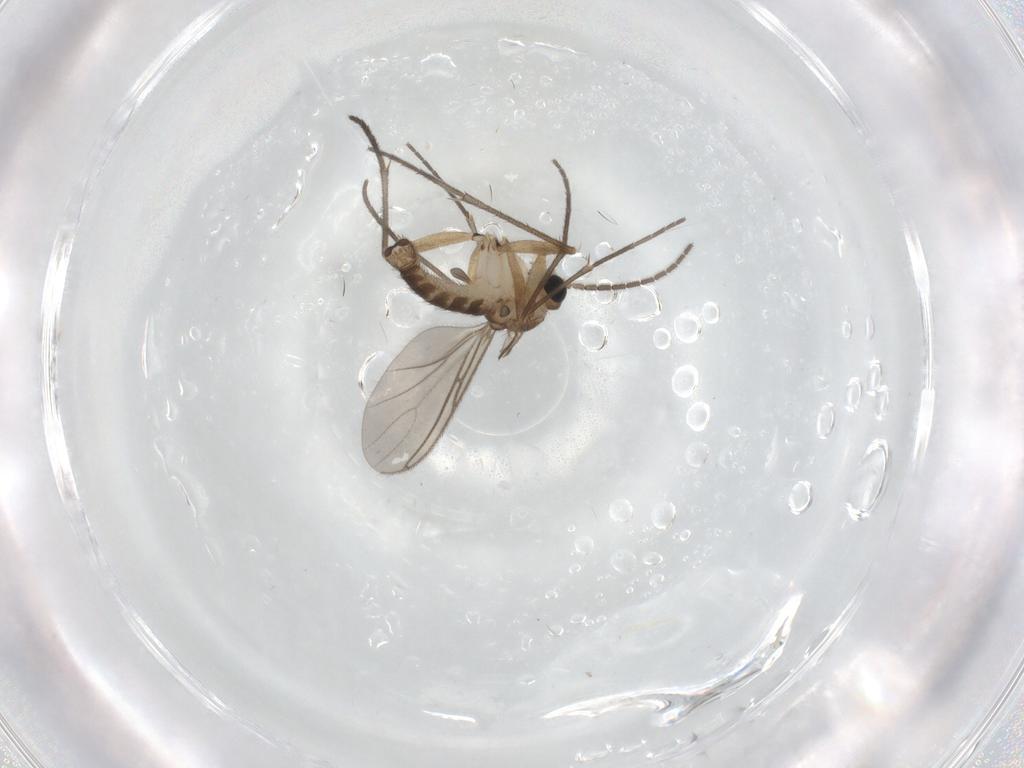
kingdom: Animalia
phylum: Arthropoda
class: Insecta
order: Diptera
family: Sciaridae
